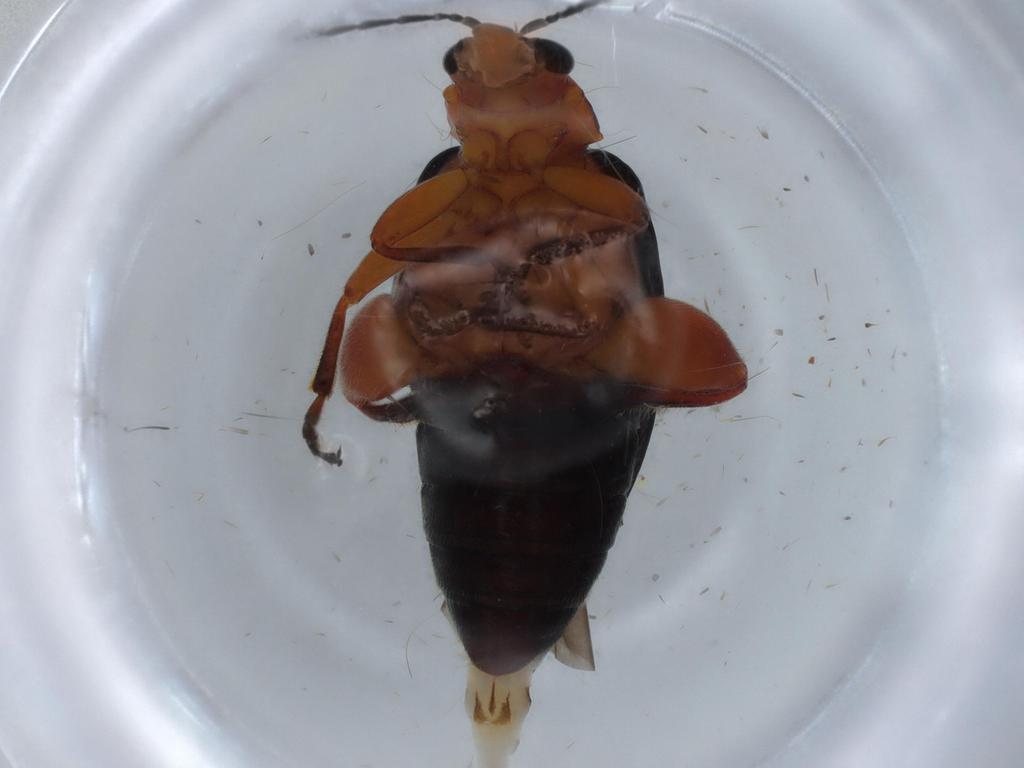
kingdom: Animalia
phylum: Arthropoda
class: Insecta
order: Coleoptera
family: Chrysomelidae
